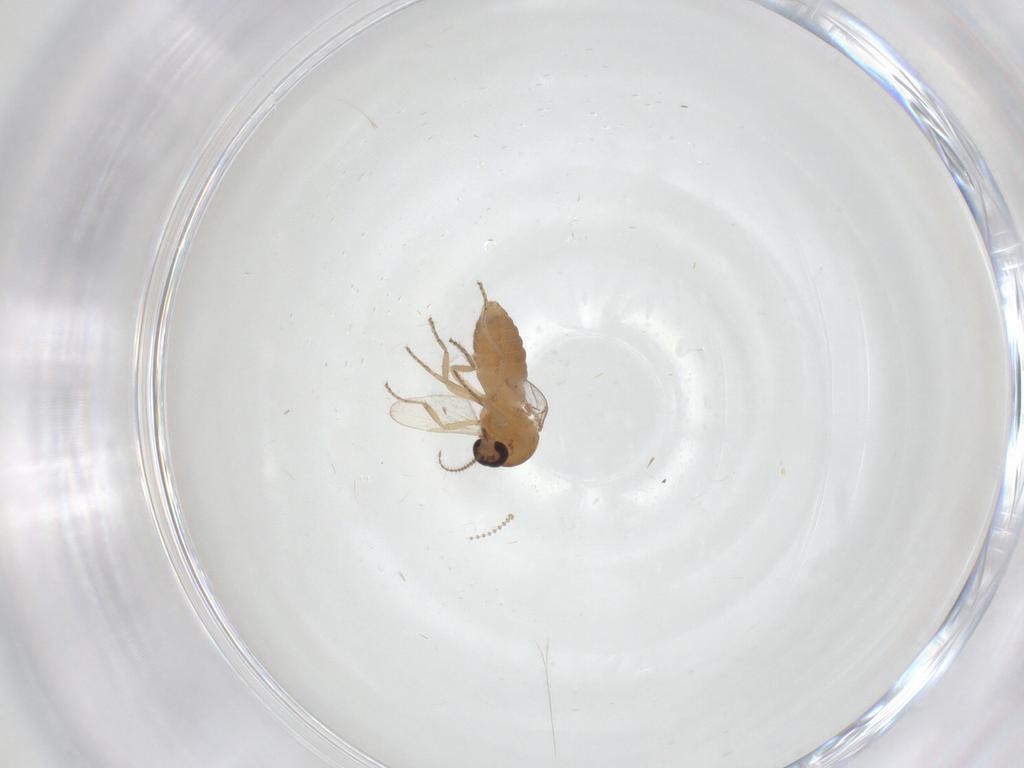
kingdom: Animalia
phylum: Arthropoda
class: Insecta
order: Diptera
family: Ceratopogonidae
